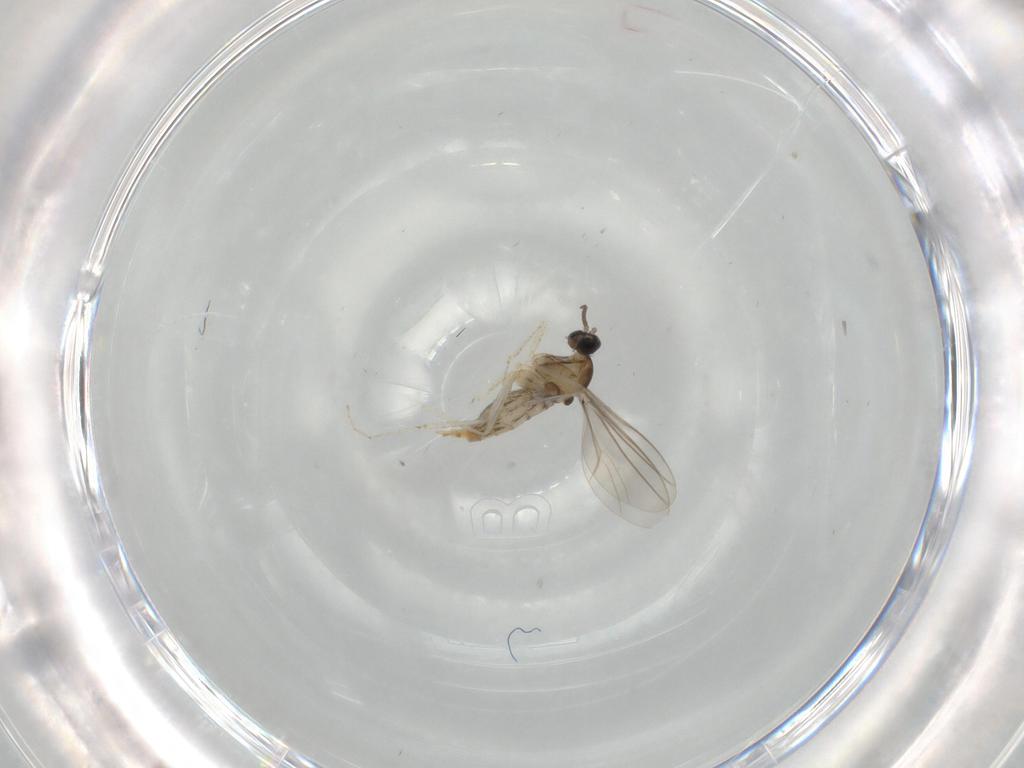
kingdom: Animalia
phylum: Arthropoda
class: Insecta
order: Diptera
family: Cecidomyiidae
